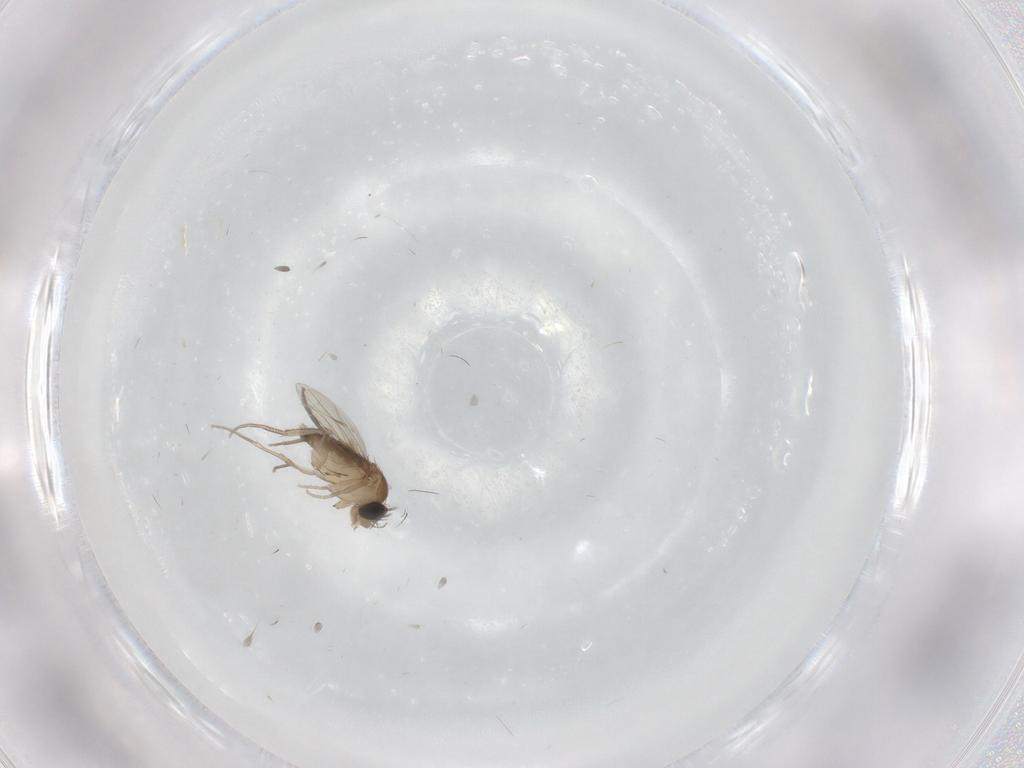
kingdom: Animalia
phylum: Arthropoda
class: Insecta
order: Diptera
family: Phoridae
